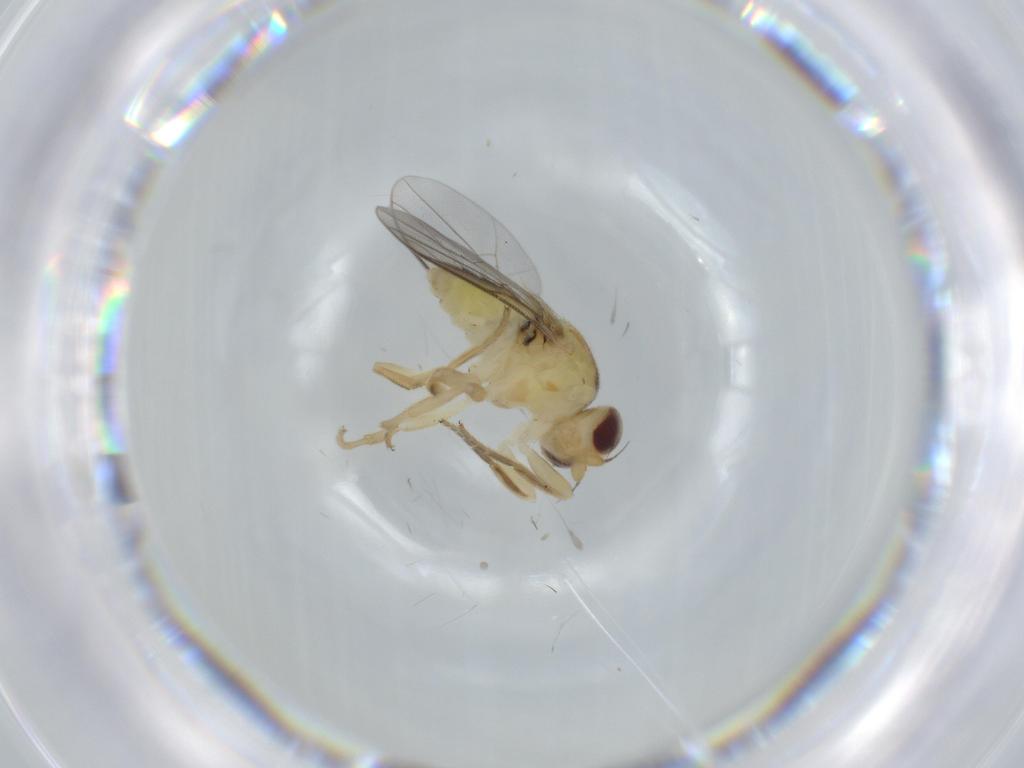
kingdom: Animalia
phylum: Arthropoda
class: Insecta
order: Diptera
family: Chloropidae
